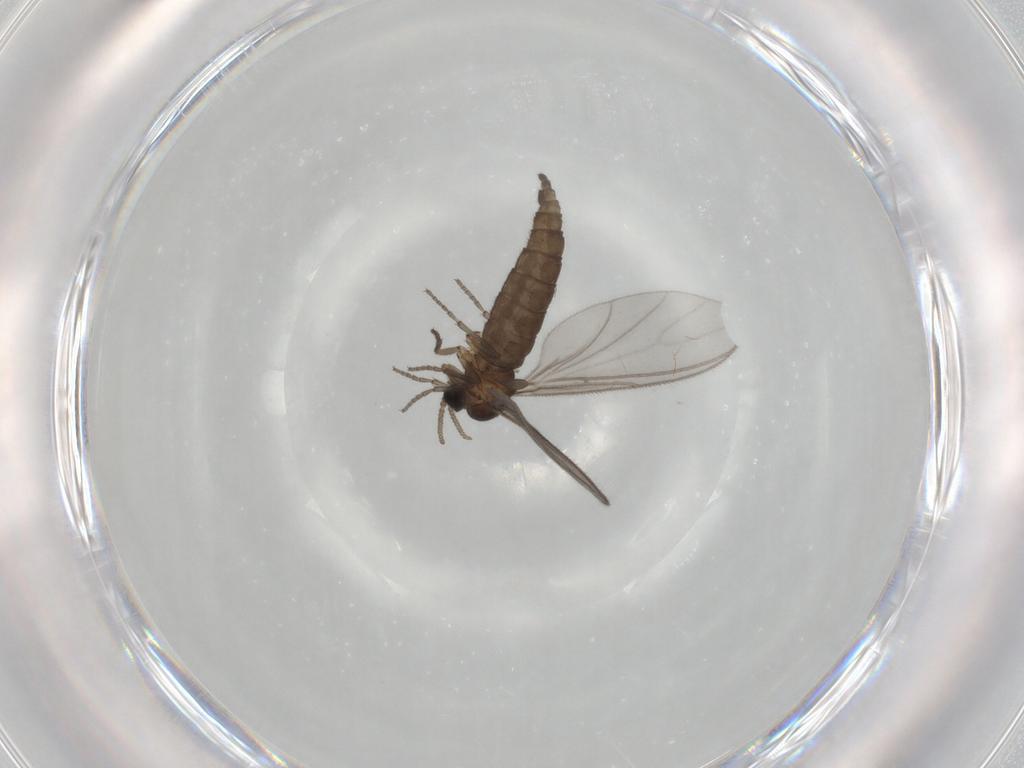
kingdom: Animalia
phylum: Arthropoda
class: Insecta
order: Diptera
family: Sciaridae
